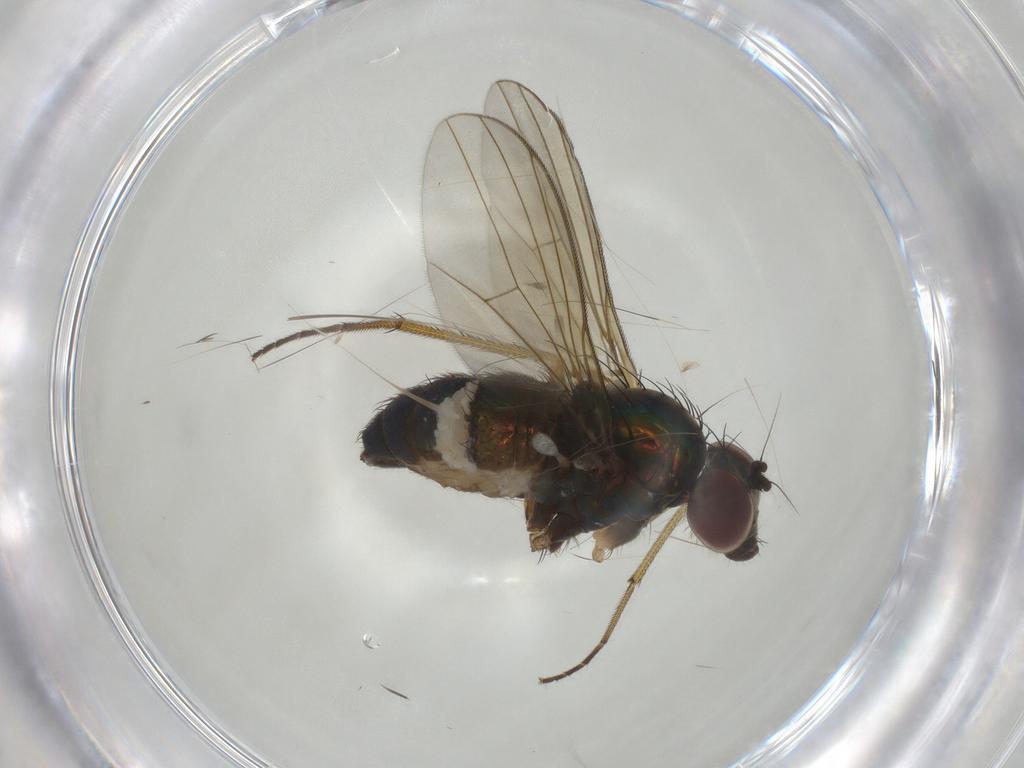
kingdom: Animalia
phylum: Arthropoda
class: Insecta
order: Diptera
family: Dolichopodidae
